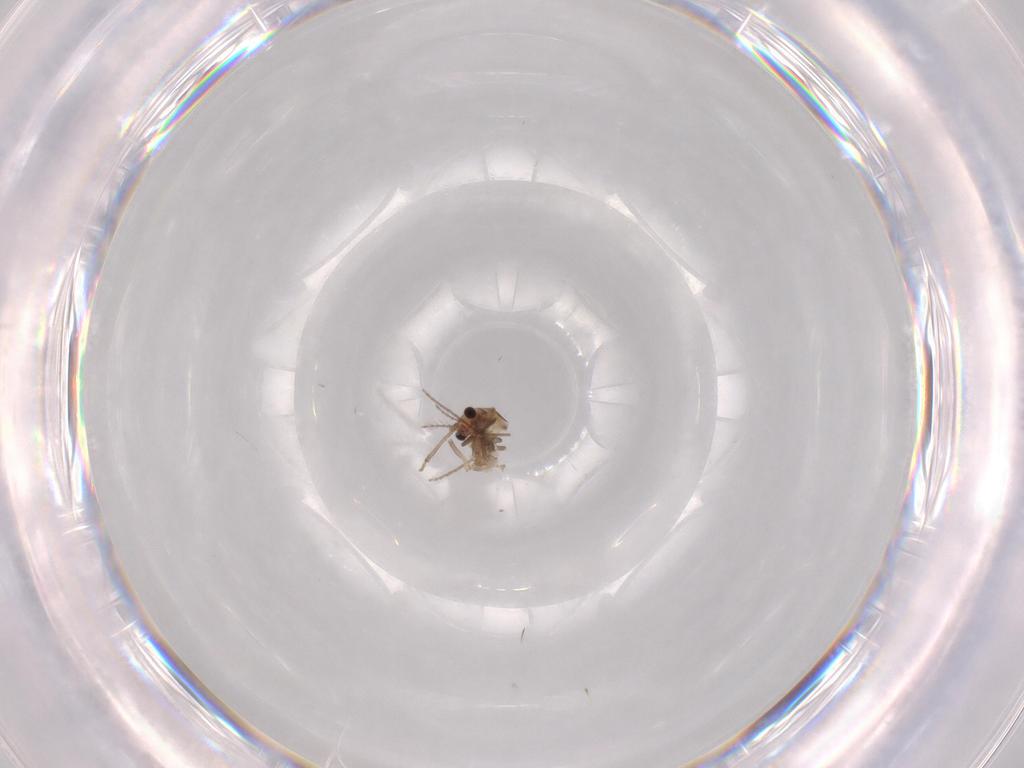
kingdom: Animalia
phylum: Arthropoda
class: Insecta
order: Diptera
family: Chironomidae
